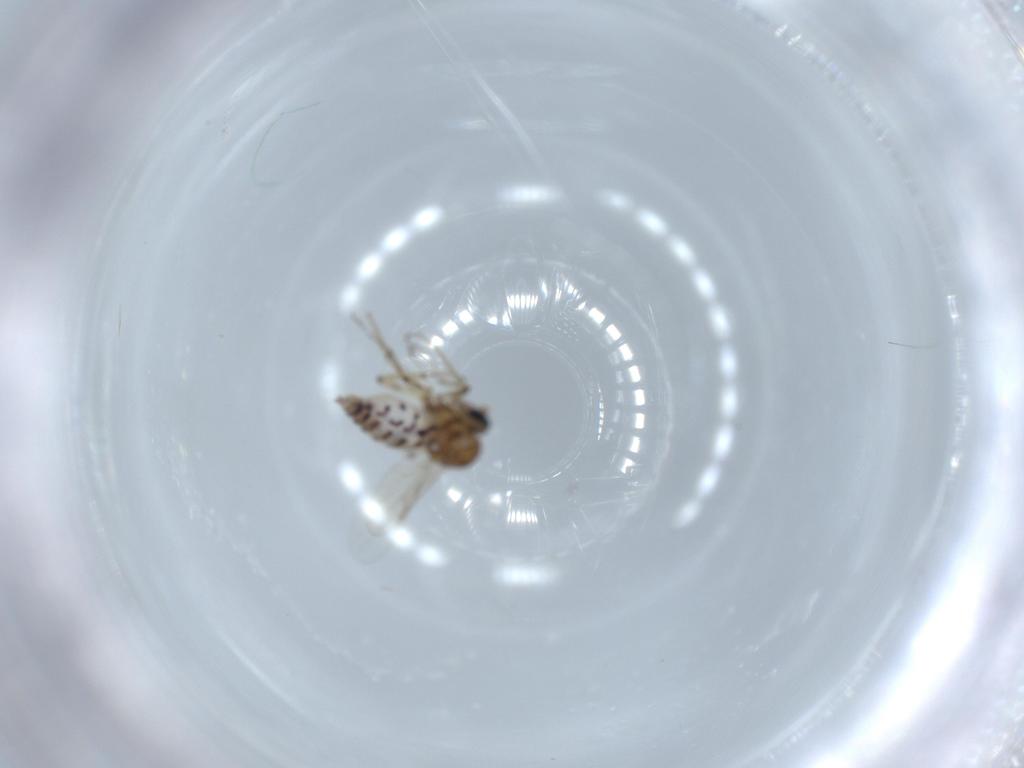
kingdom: Animalia
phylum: Arthropoda
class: Insecta
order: Diptera
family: Ceratopogonidae
